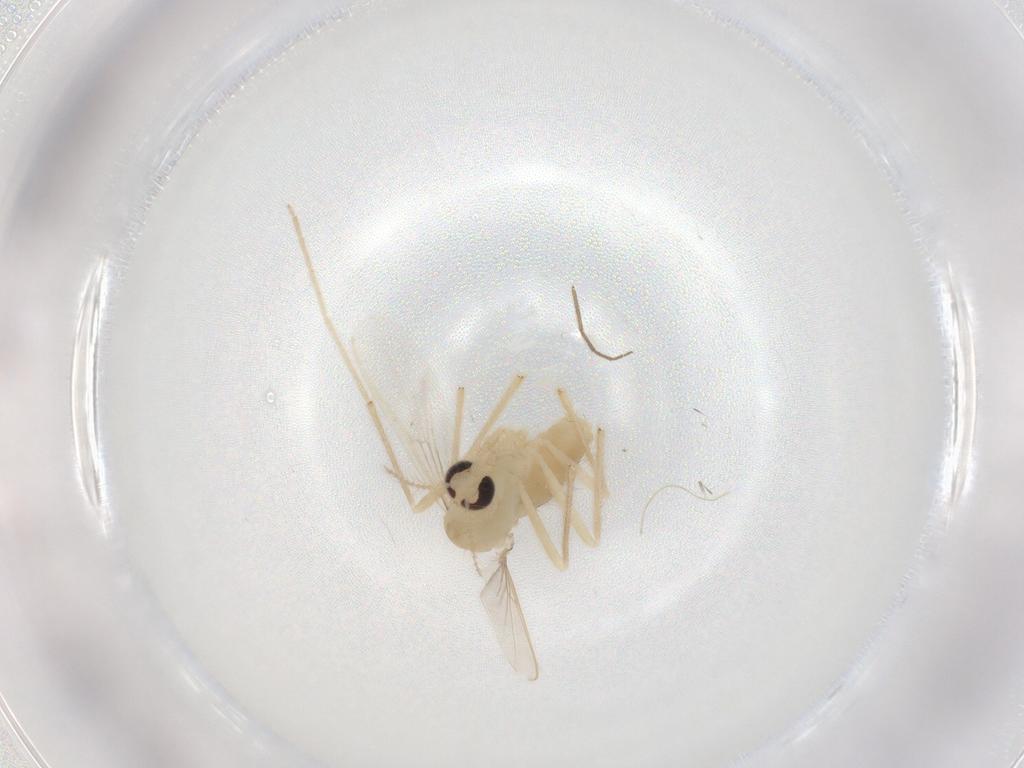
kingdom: Animalia
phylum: Arthropoda
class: Insecta
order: Diptera
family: Chironomidae
